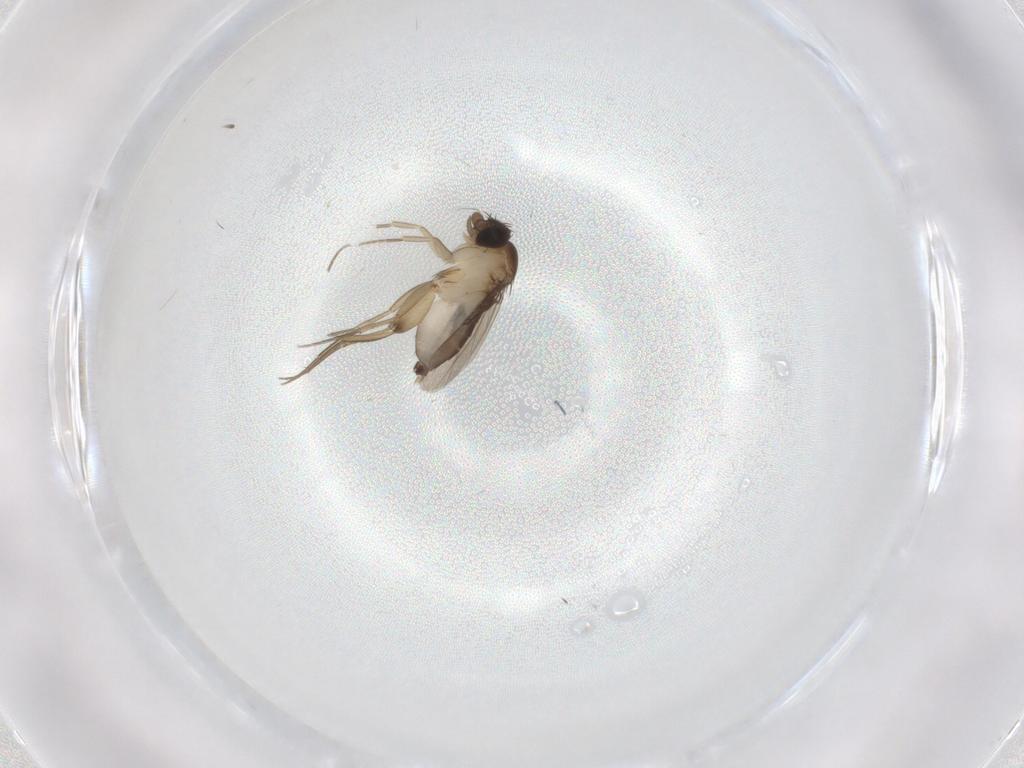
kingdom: Animalia
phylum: Arthropoda
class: Insecta
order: Diptera
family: Phoridae
